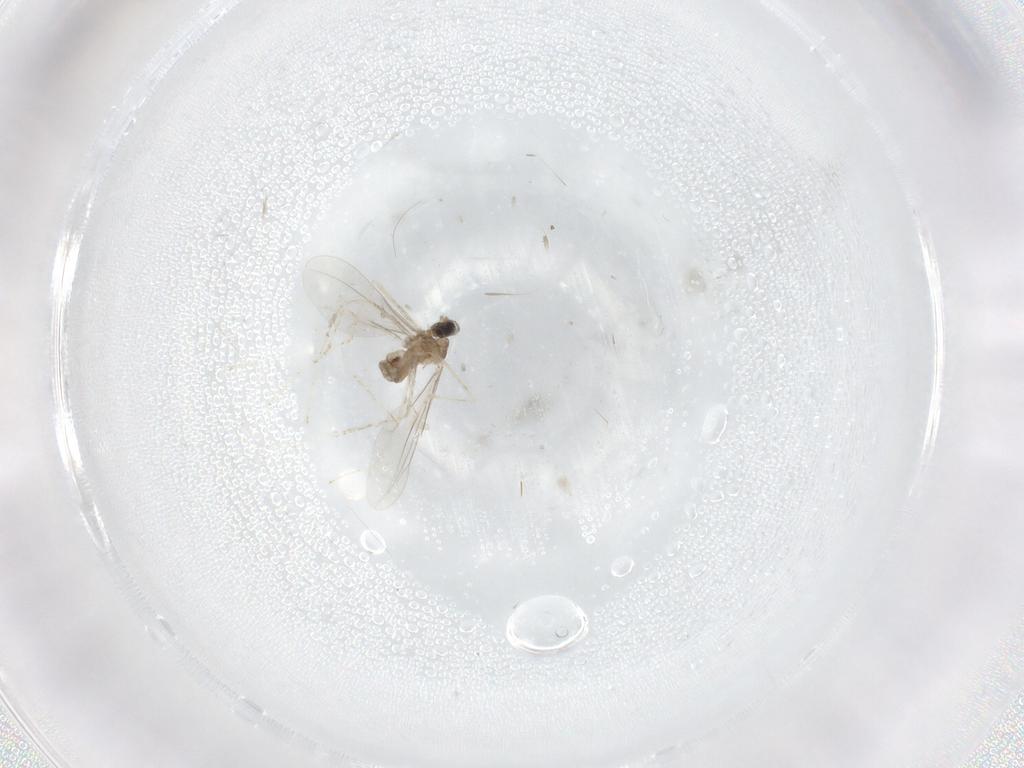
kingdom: Animalia
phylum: Arthropoda
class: Insecta
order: Diptera
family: Cecidomyiidae
